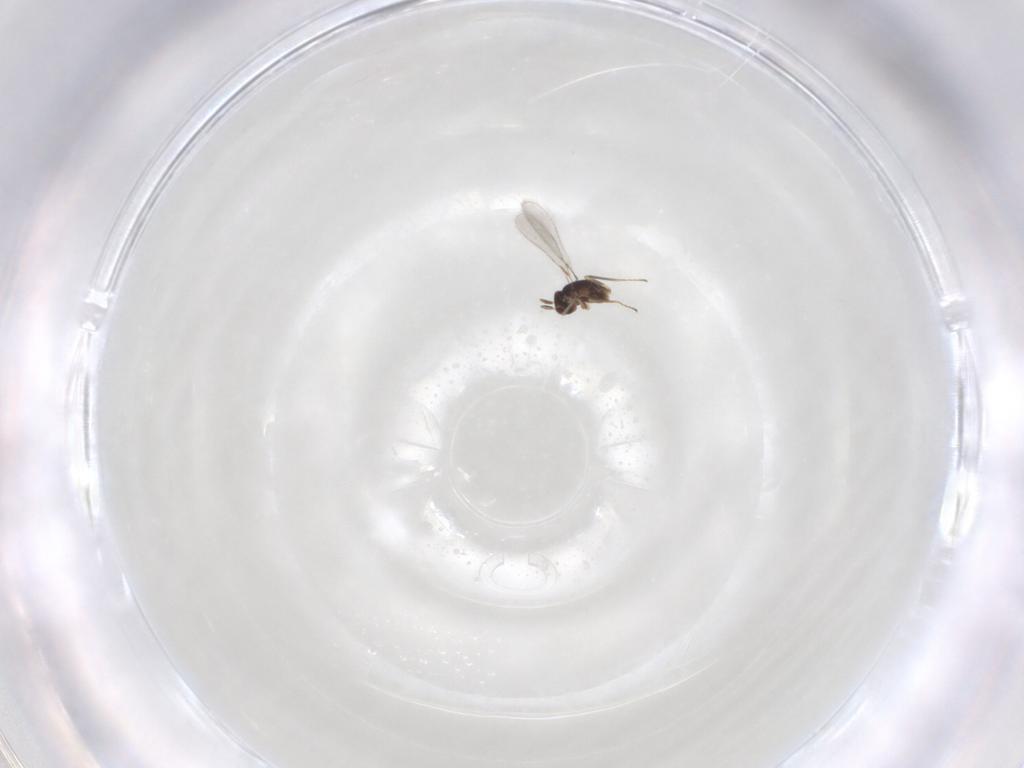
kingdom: Animalia
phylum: Arthropoda
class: Insecta
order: Hymenoptera
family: Mymaridae
